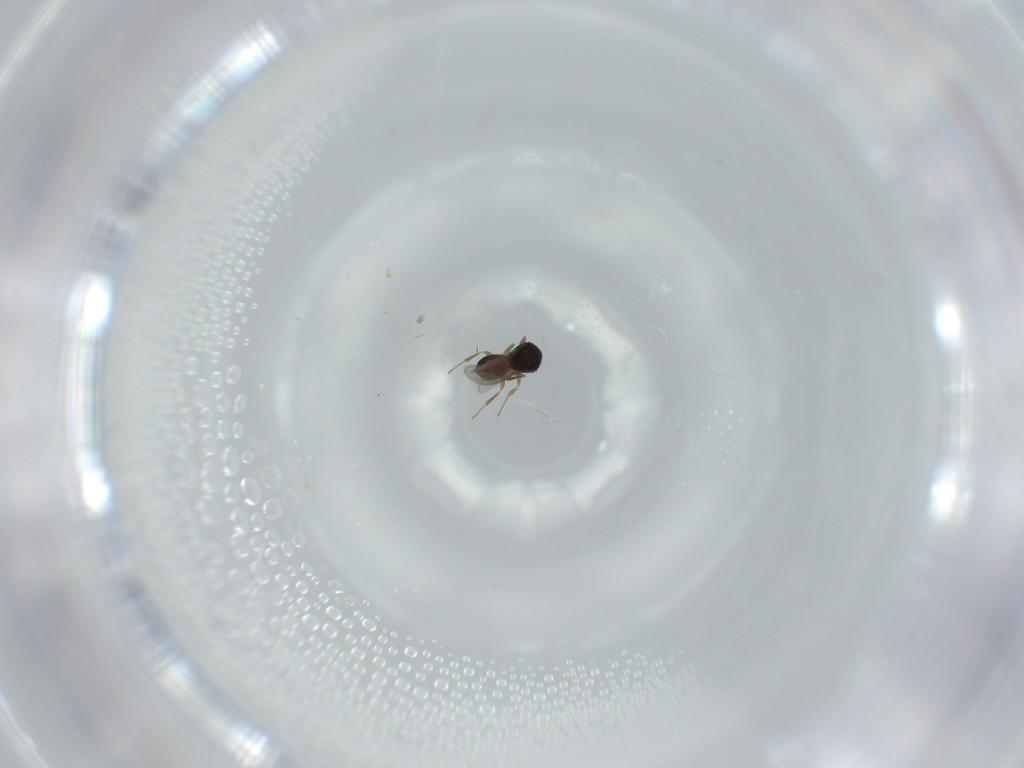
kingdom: Animalia
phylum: Arthropoda
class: Insecta
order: Hymenoptera
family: Scelionidae
